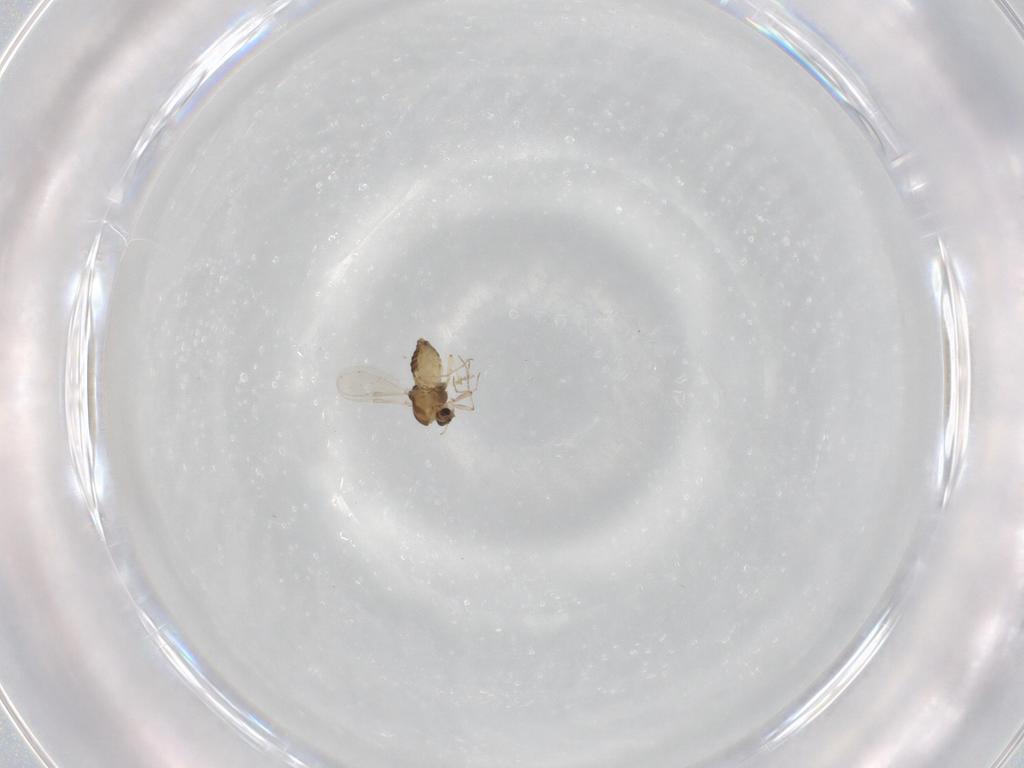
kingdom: Animalia
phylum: Arthropoda
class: Insecta
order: Diptera
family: Chironomidae
